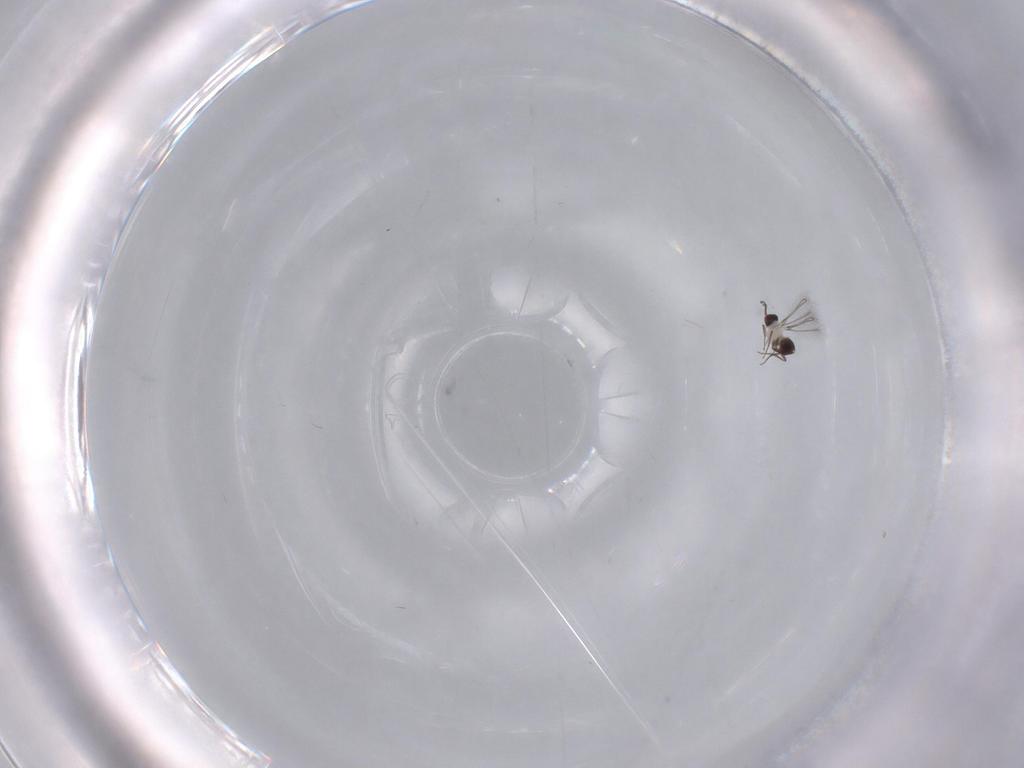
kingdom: Animalia
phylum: Arthropoda
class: Insecta
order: Hymenoptera
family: Mymaridae
